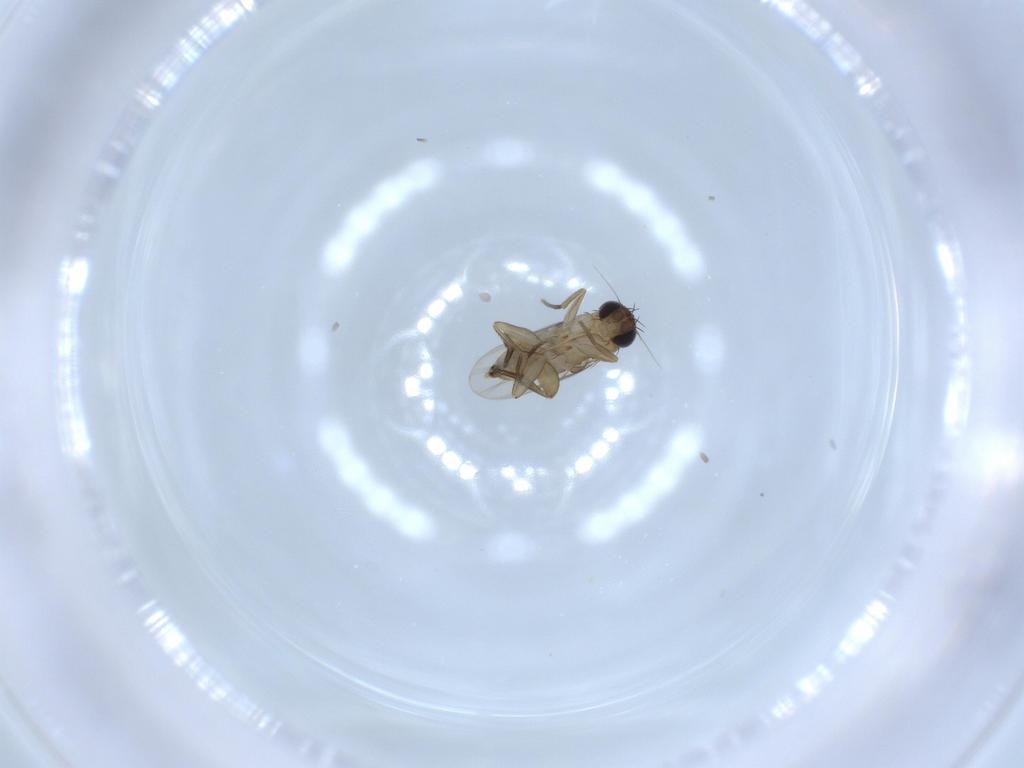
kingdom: Animalia
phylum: Arthropoda
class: Insecta
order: Diptera
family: Phoridae
